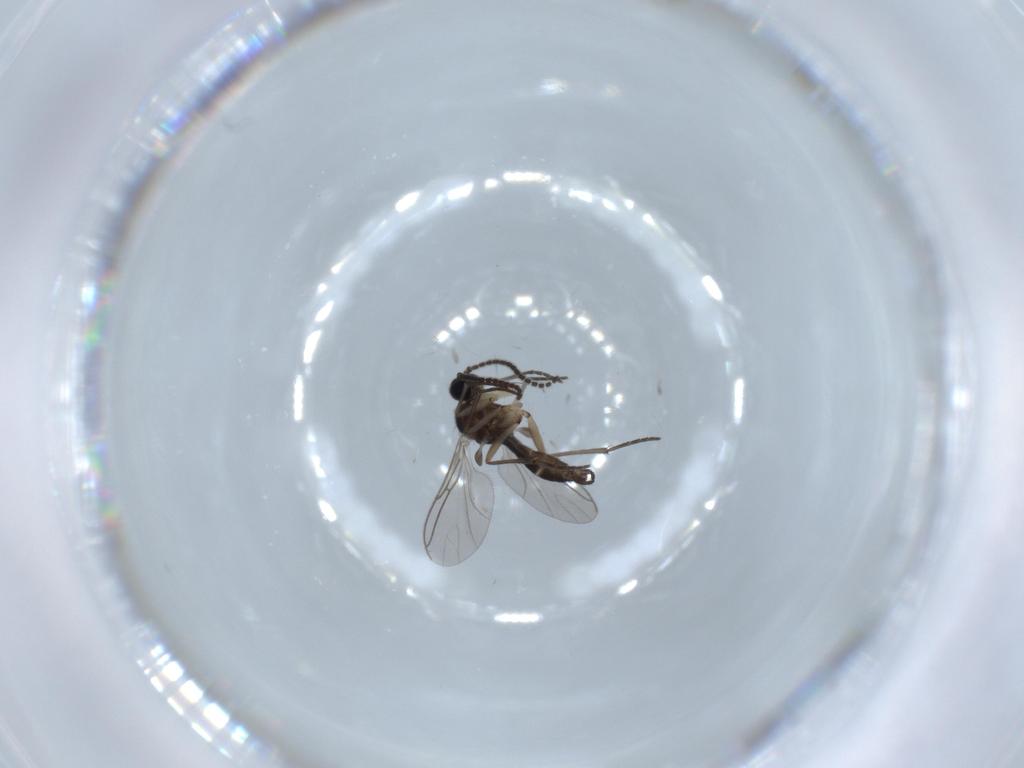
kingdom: Animalia
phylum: Arthropoda
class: Insecta
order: Diptera
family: Sciaridae
